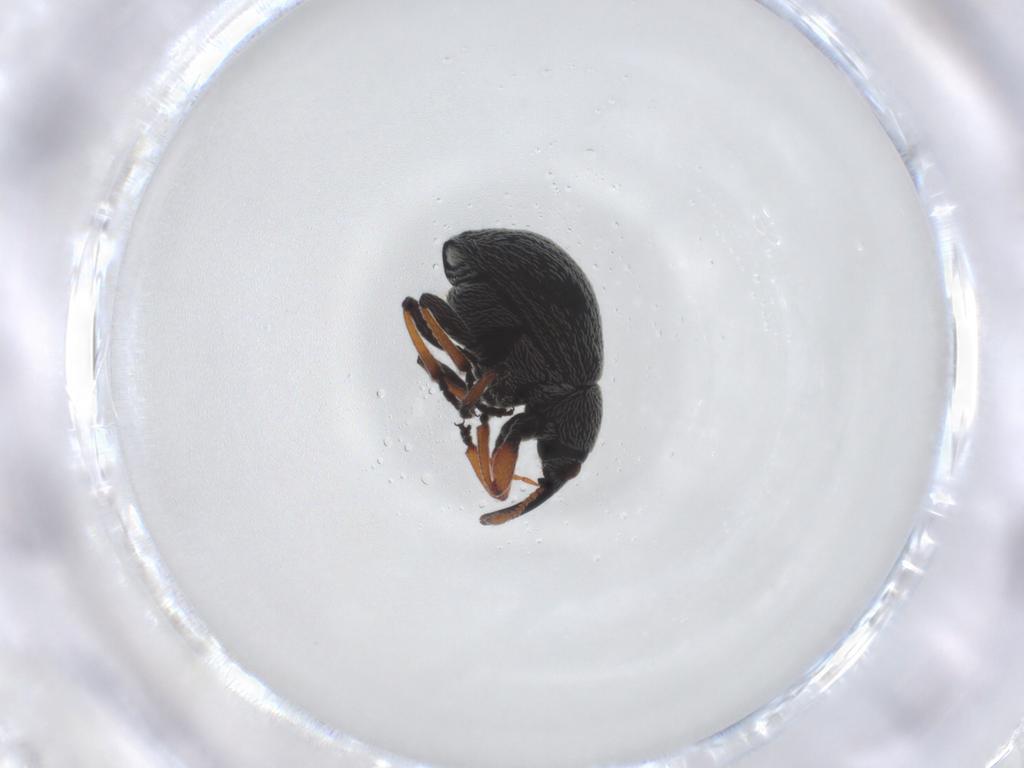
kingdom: Animalia
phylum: Arthropoda
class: Insecta
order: Coleoptera
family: Brentidae
